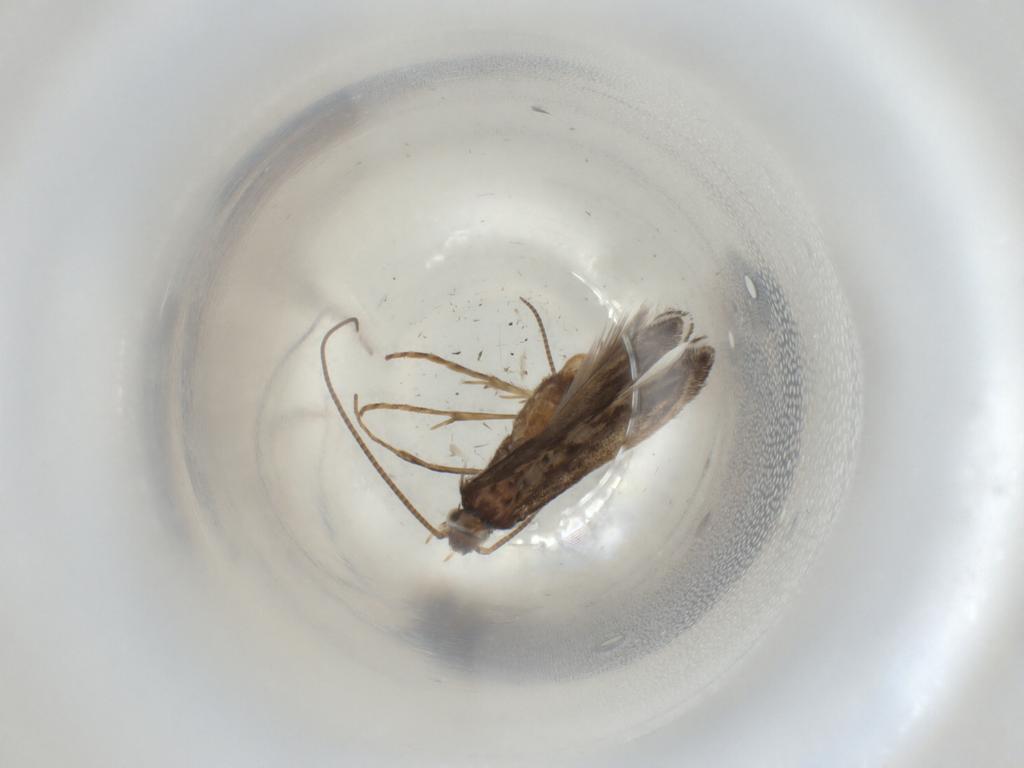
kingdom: Animalia
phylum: Arthropoda
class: Insecta
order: Lepidoptera
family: Gracillariidae
